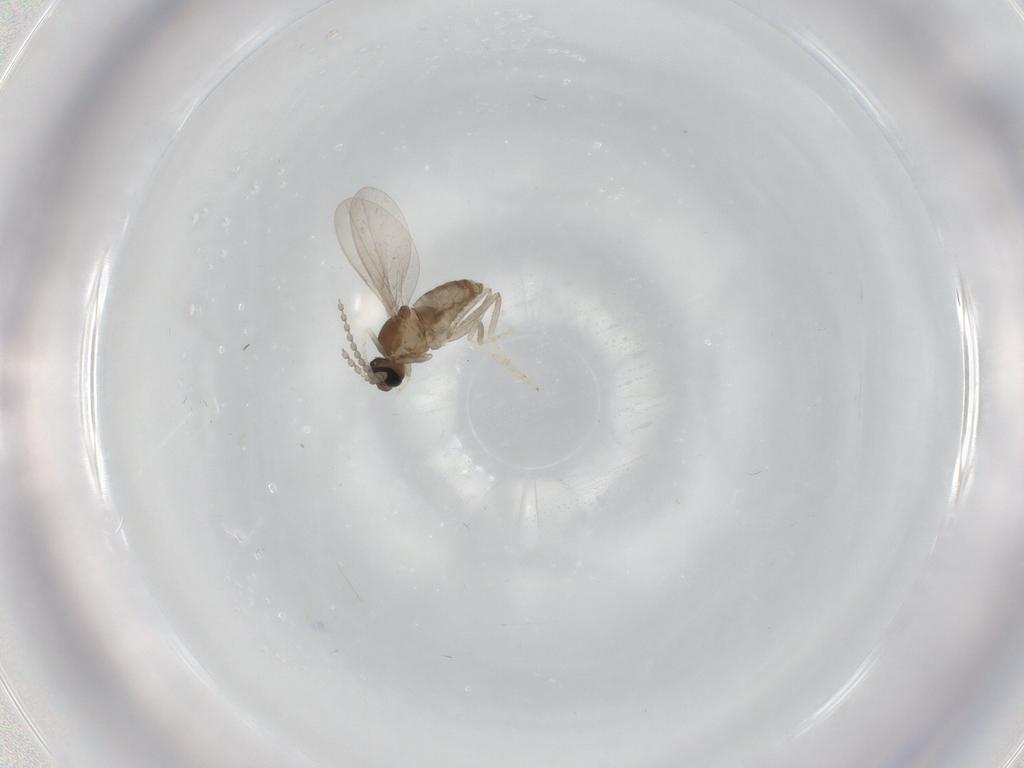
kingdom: Animalia
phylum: Arthropoda
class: Insecta
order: Diptera
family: Cecidomyiidae
